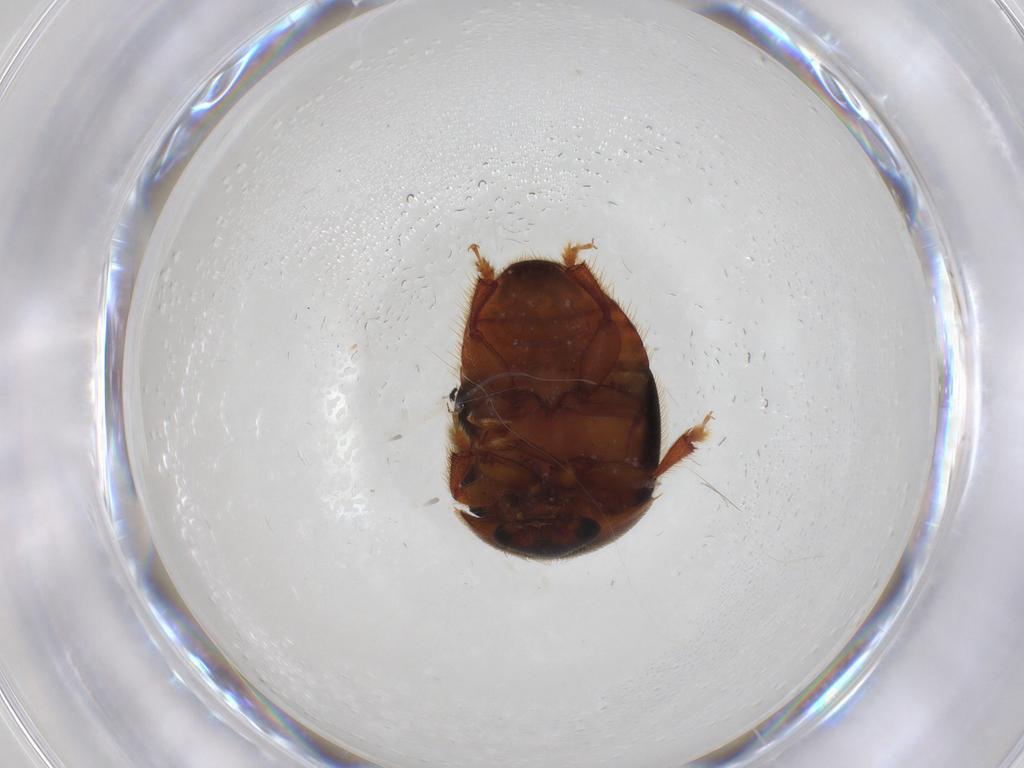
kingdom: Animalia
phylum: Arthropoda
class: Insecta
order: Coleoptera
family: Nitidulidae
